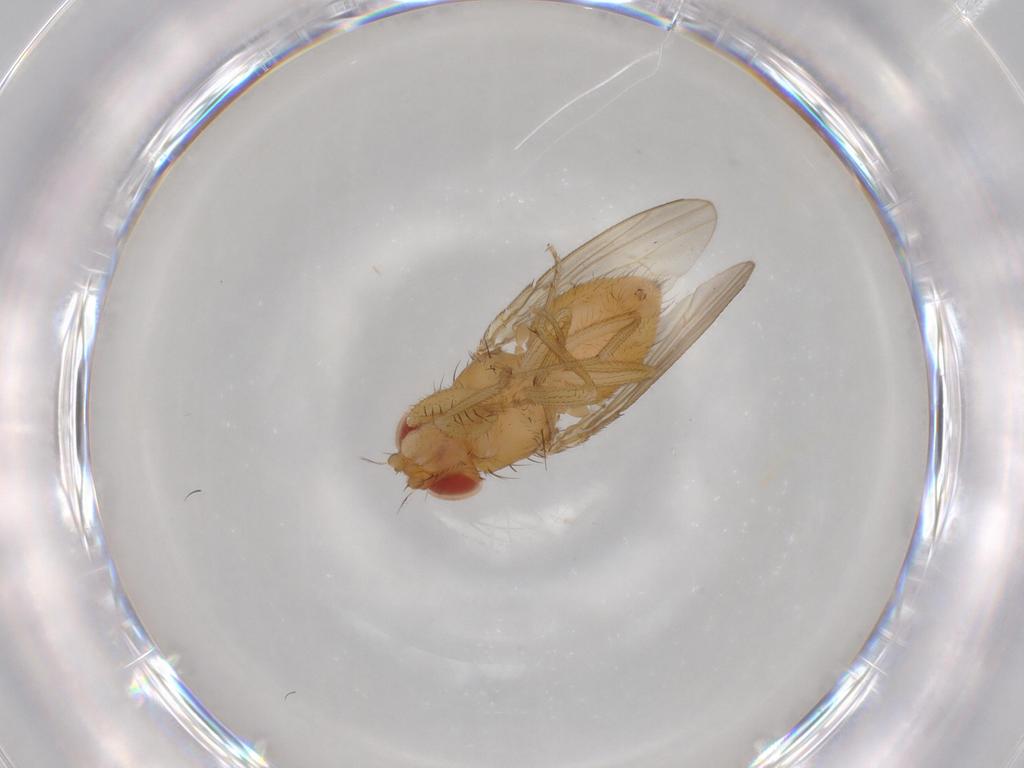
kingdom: Animalia
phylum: Arthropoda
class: Insecta
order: Diptera
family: Drosophilidae
